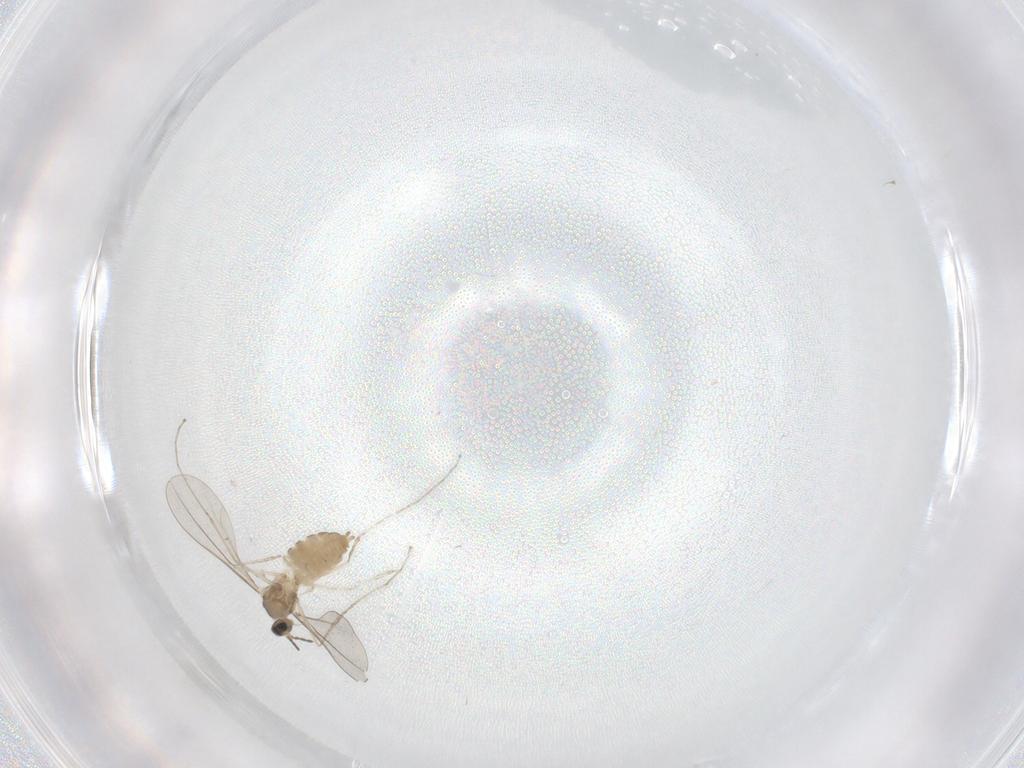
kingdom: Animalia
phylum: Arthropoda
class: Insecta
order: Diptera
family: Cecidomyiidae
